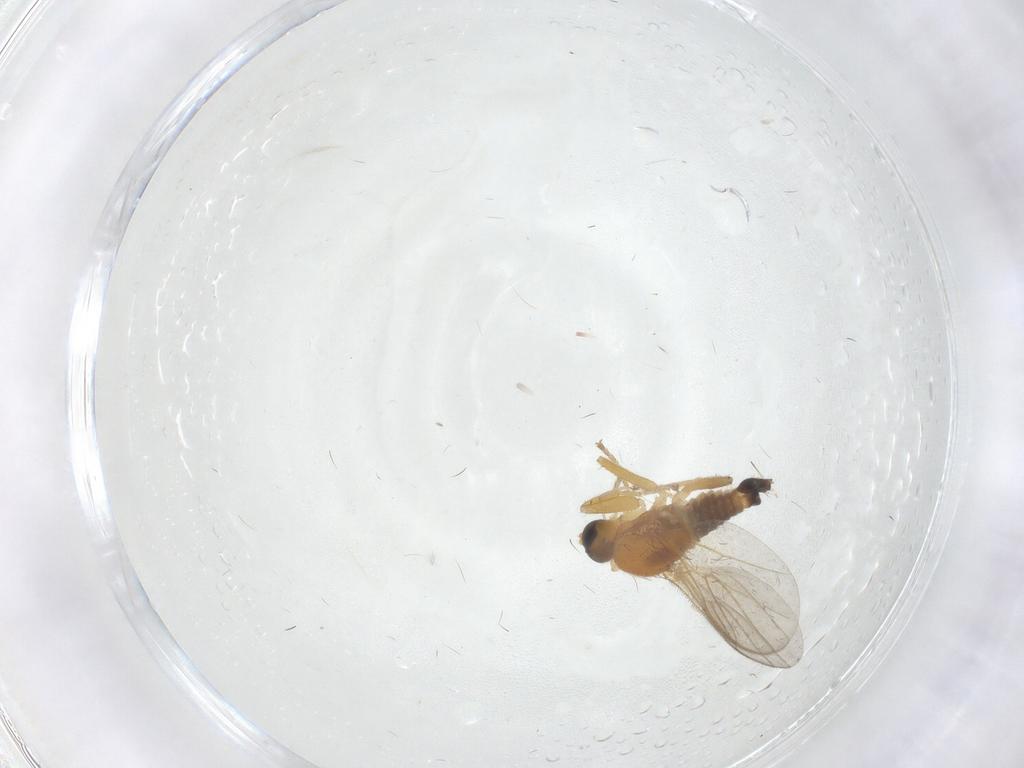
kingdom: Animalia
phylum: Arthropoda
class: Insecta
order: Diptera
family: Hybotidae
